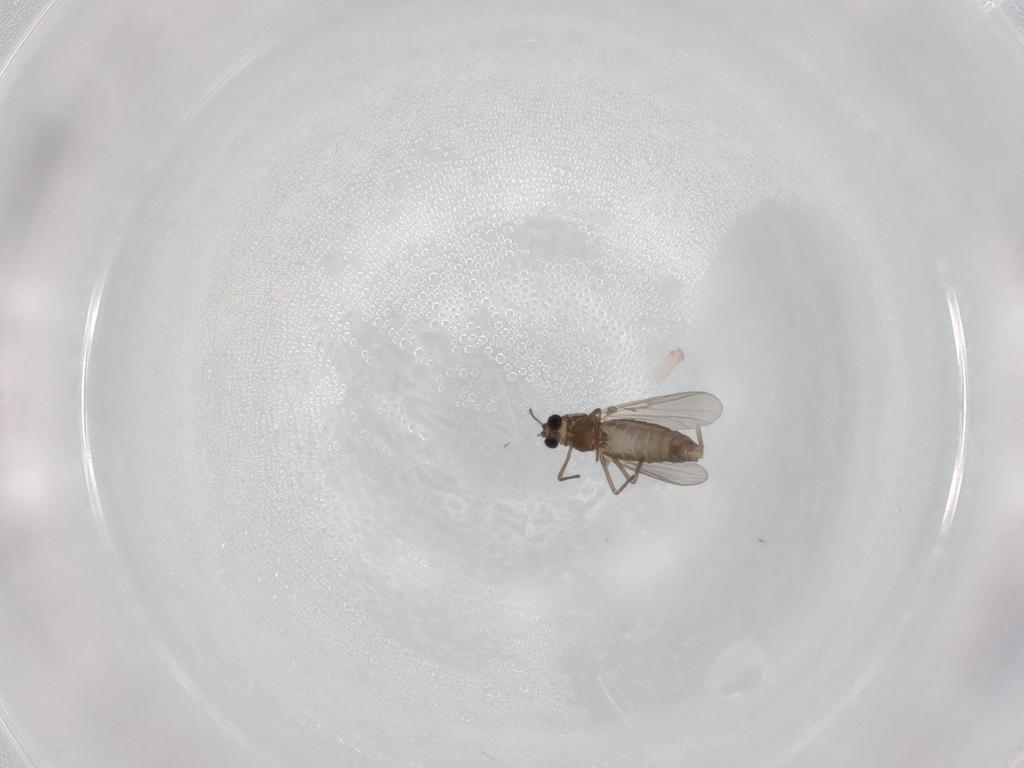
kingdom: Animalia
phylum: Arthropoda
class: Insecta
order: Diptera
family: Chironomidae
